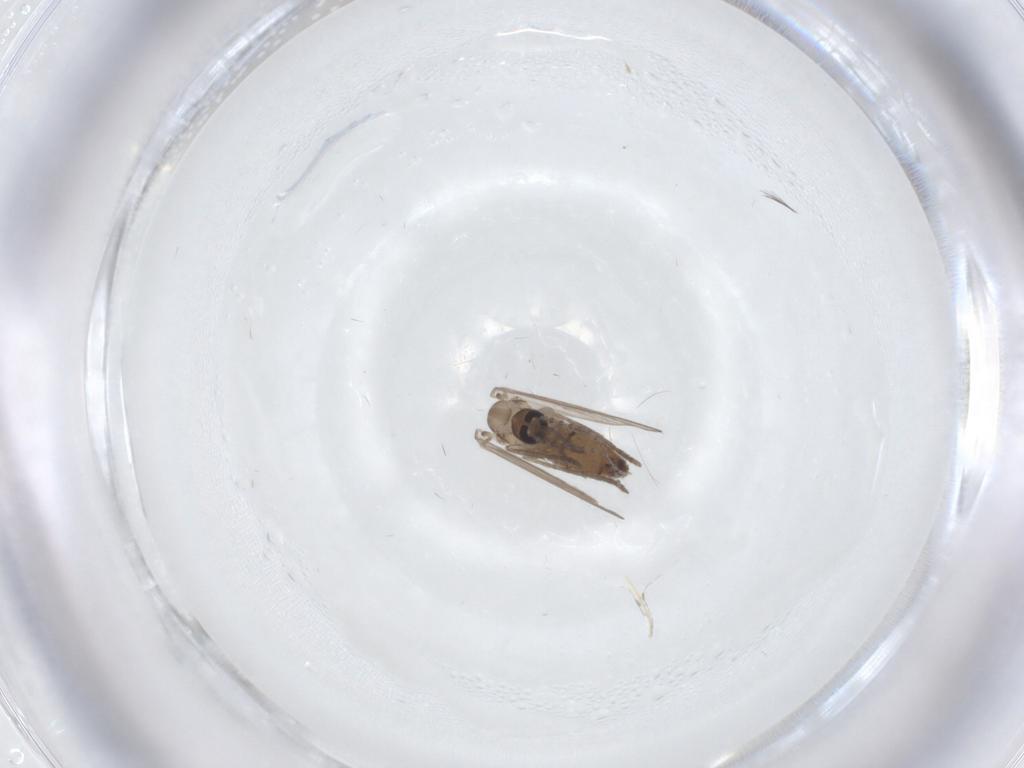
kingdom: Animalia
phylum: Arthropoda
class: Insecta
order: Diptera
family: Psychodidae
